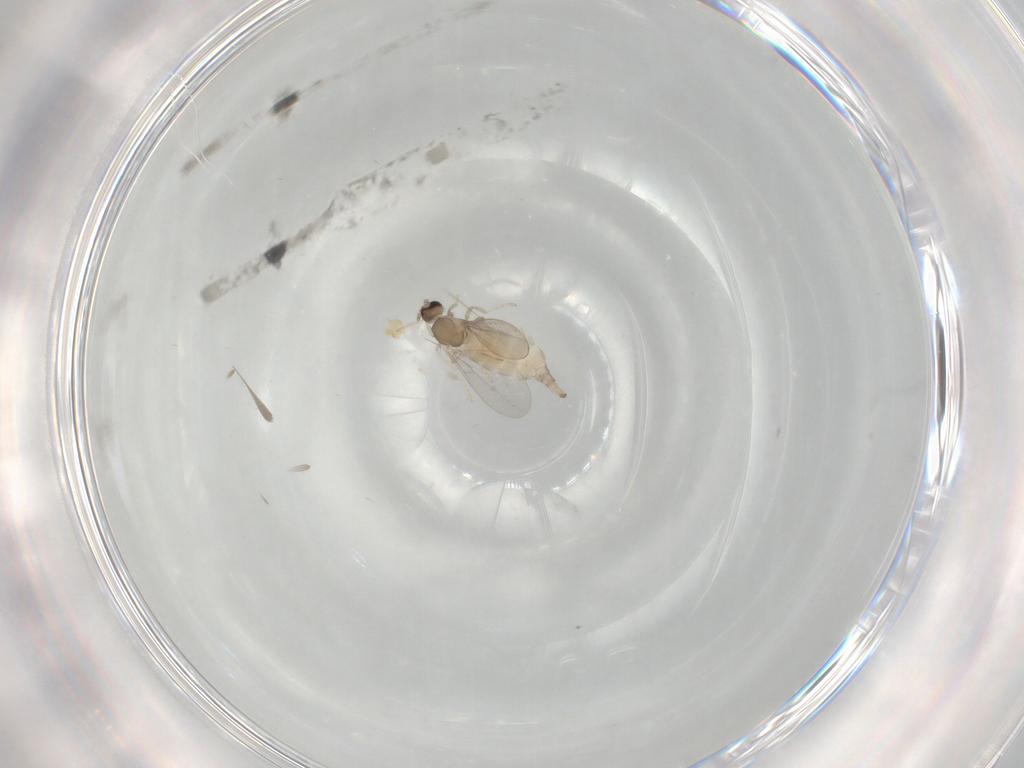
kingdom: Animalia
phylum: Arthropoda
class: Insecta
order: Diptera
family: Cecidomyiidae
